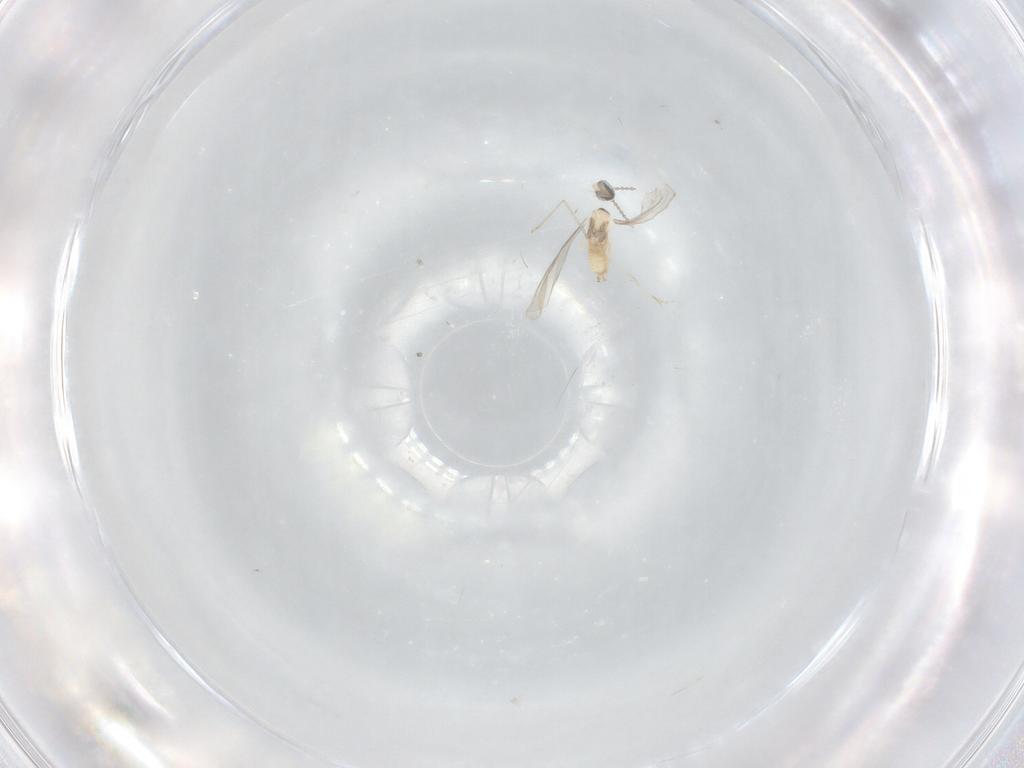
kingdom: Animalia
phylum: Arthropoda
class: Insecta
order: Diptera
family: Cecidomyiidae
